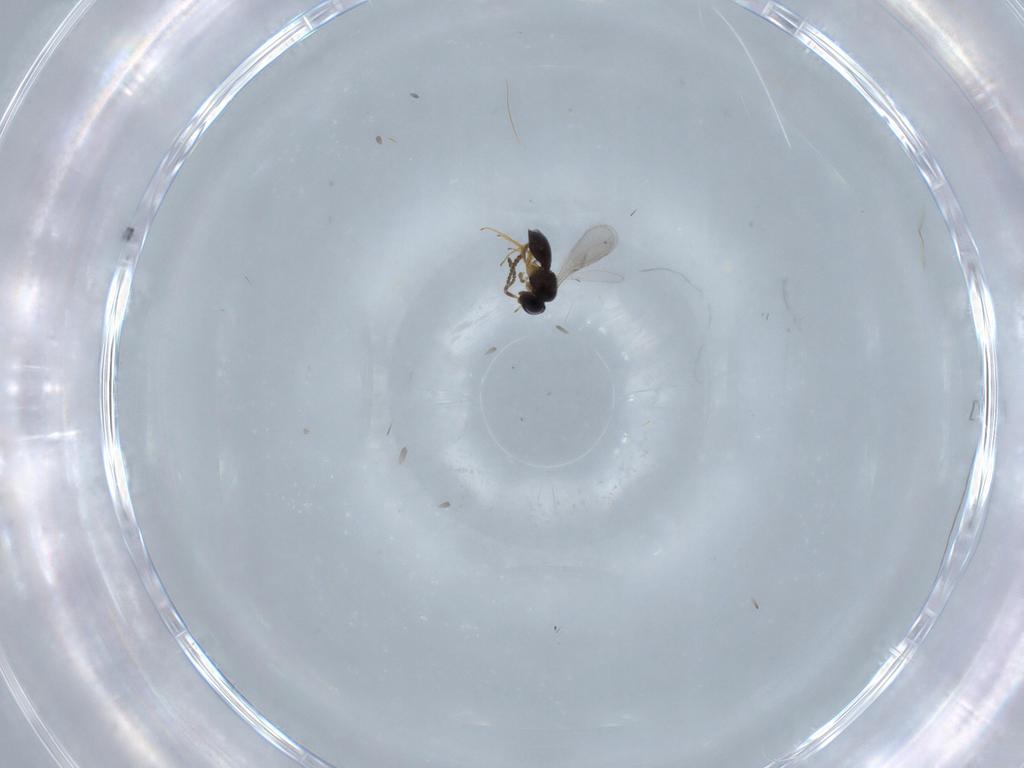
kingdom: Animalia
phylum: Arthropoda
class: Insecta
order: Hymenoptera
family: Scelionidae
